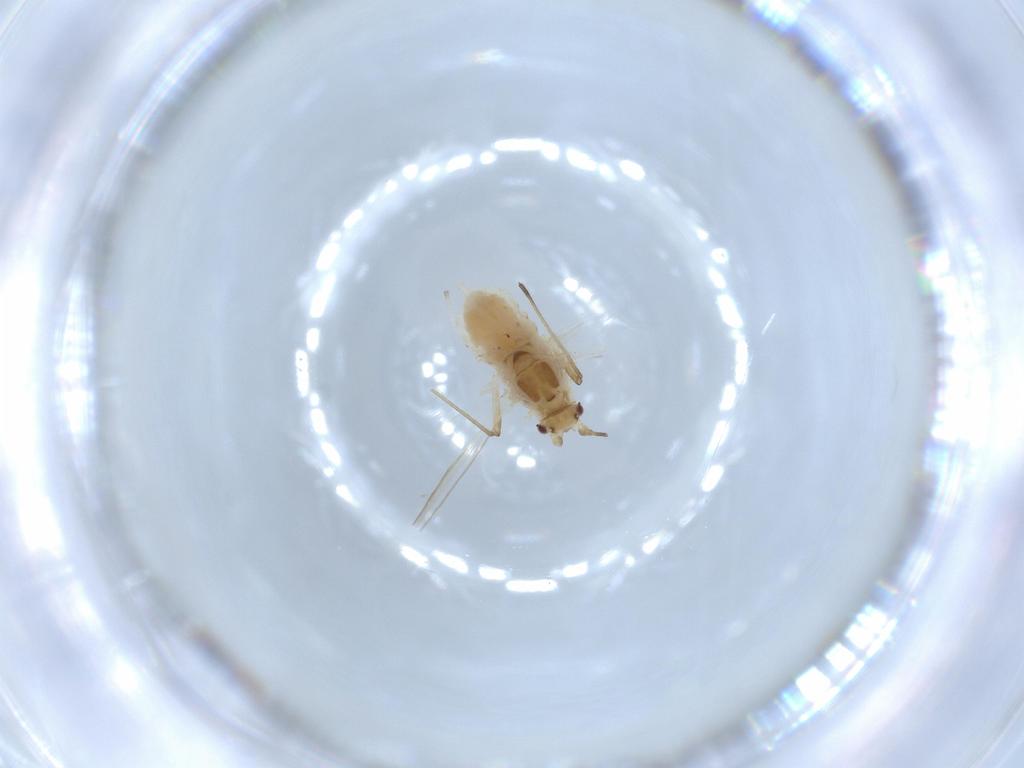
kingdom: Animalia
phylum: Arthropoda
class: Insecta
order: Hemiptera
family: Aphididae
